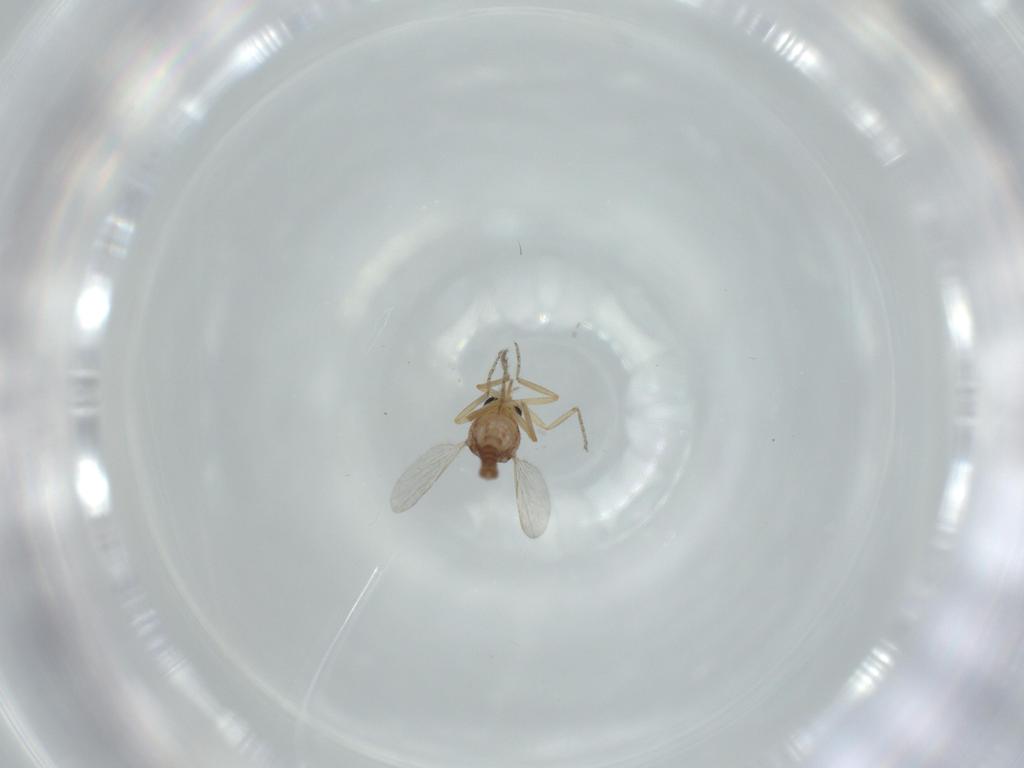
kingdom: Animalia
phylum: Arthropoda
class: Insecta
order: Diptera
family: Ceratopogonidae
